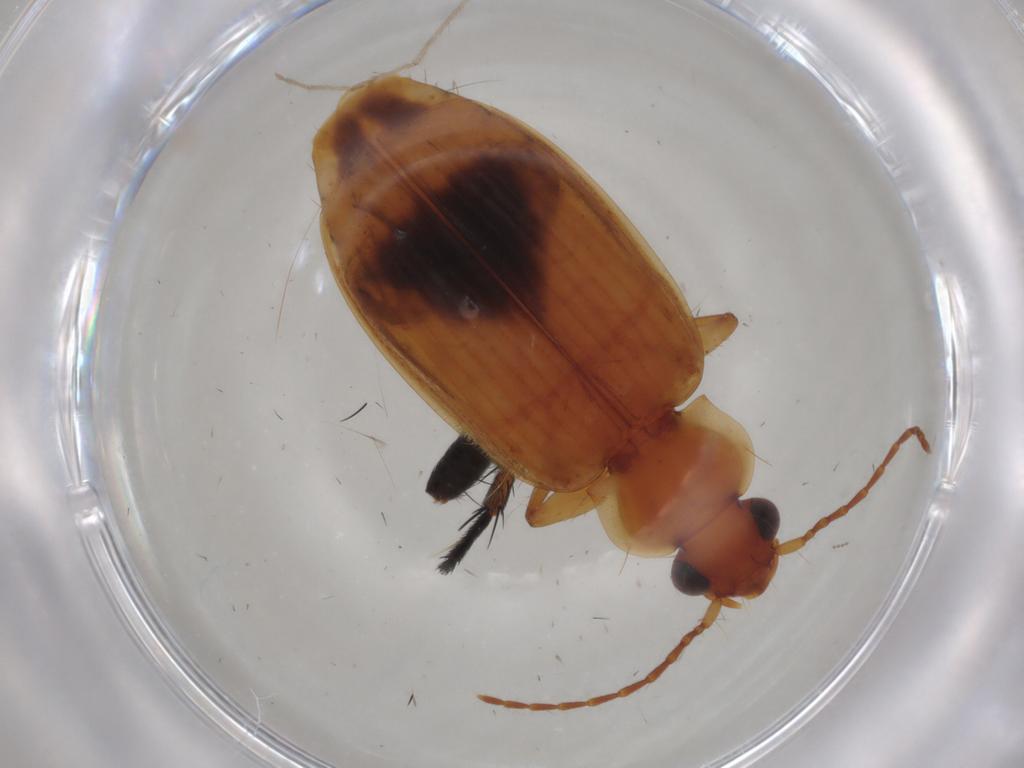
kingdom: Animalia
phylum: Arthropoda
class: Insecta
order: Coleoptera
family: Carabidae
